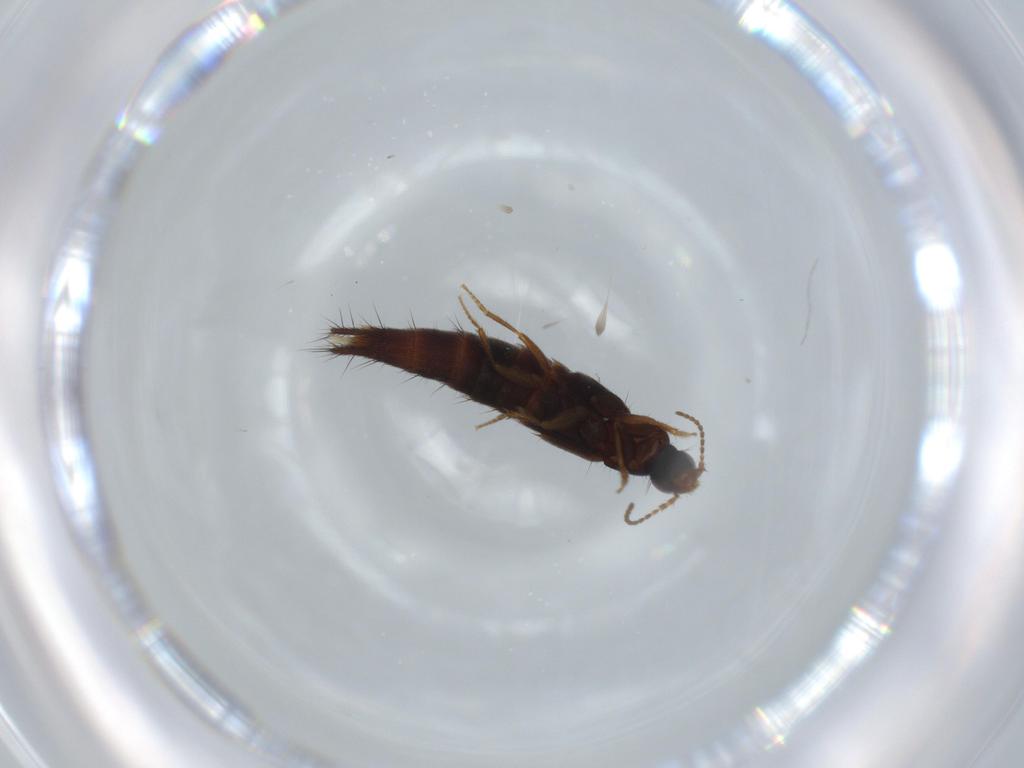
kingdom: Animalia
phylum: Arthropoda
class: Insecta
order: Coleoptera
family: Staphylinidae
